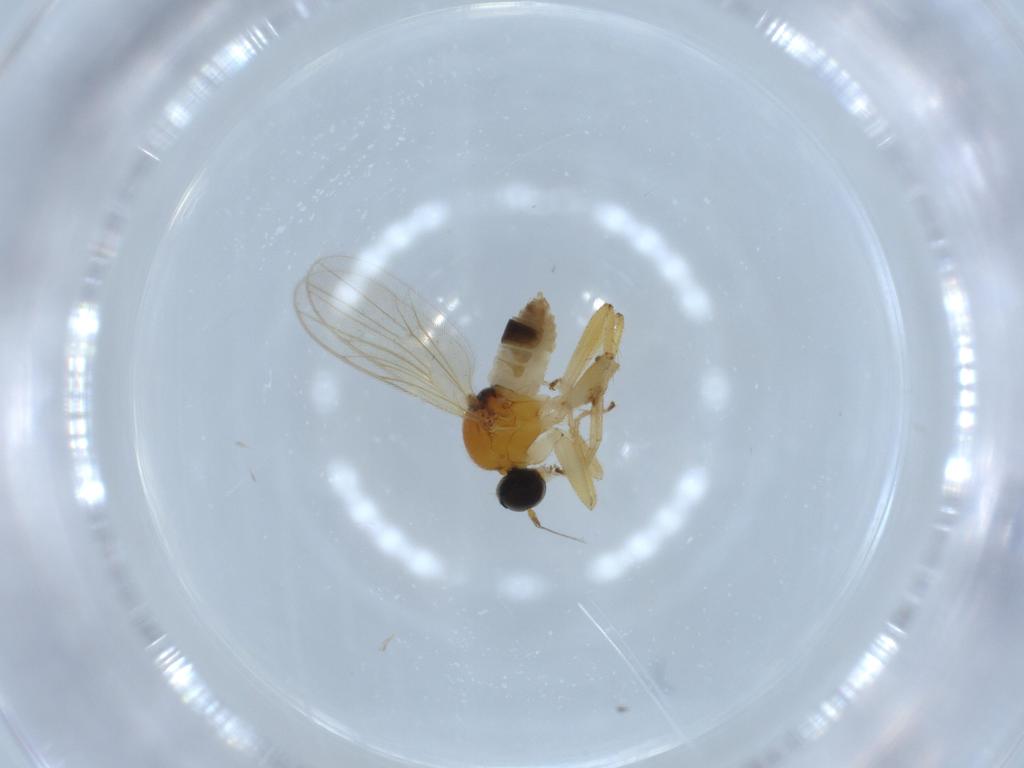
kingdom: Animalia
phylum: Arthropoda
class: Insecta
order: Diptera
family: Hybotidae
